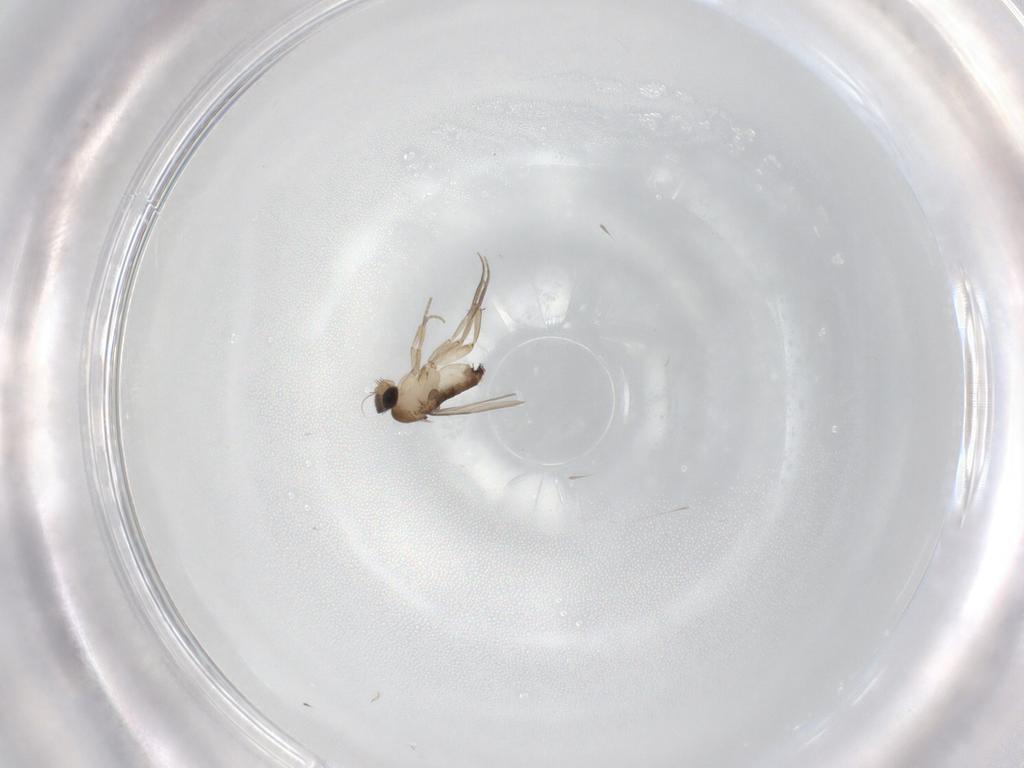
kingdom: Animalia
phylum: Arthropoda
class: Insecta
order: Diptera
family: Phoridae
